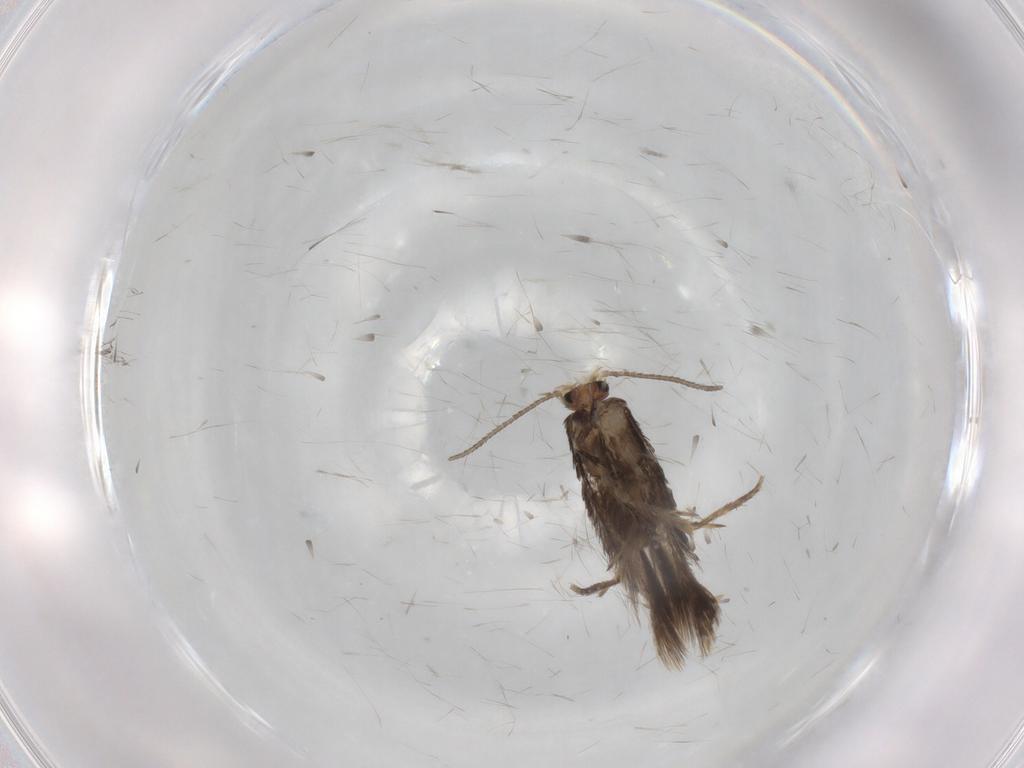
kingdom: Animalia
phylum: Arthropoda
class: Insecta
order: Lepidoptera
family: Nepticulidae
